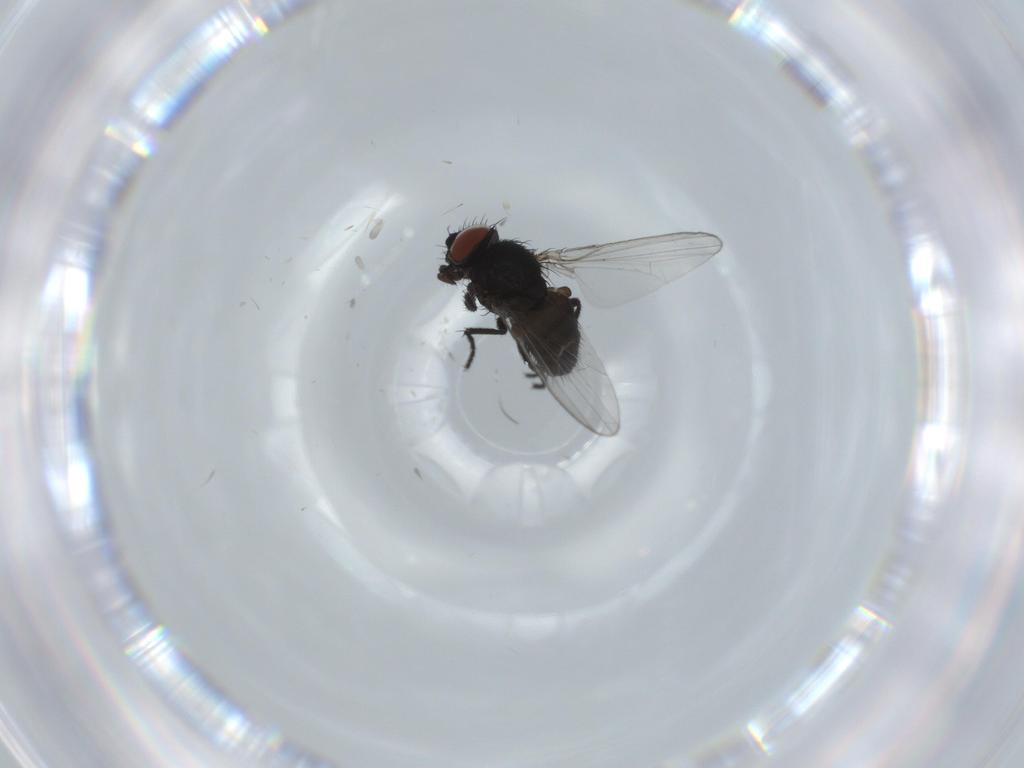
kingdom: Animalia
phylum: Arthropoda
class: Insecta
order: Diptera
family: Milichiidae
